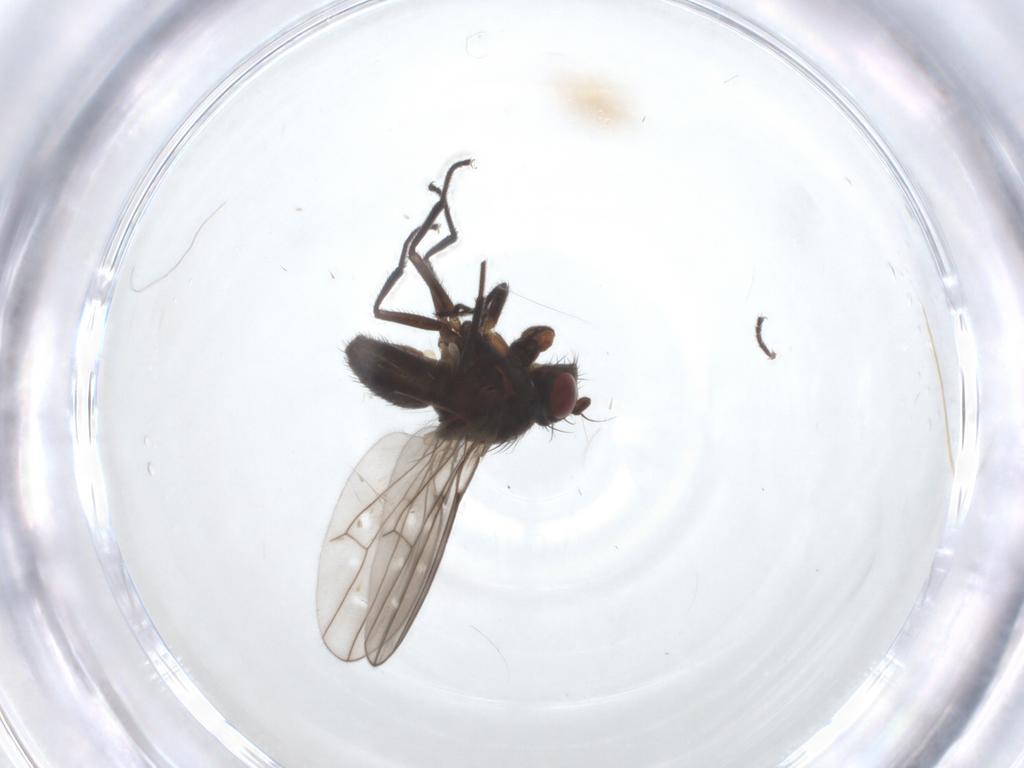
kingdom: Animalia
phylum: Arthropoda
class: Insecta
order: Diptera
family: Ephydridae
